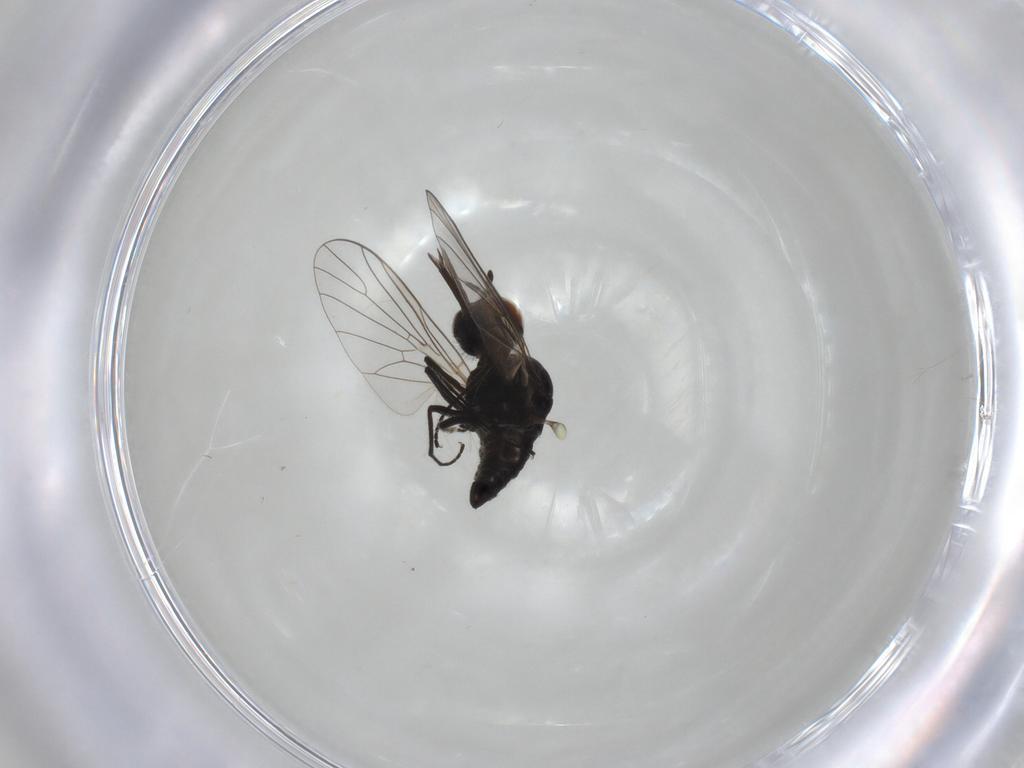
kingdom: Animalia
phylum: Arthropoda
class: Insecta
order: Diptera
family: Bombyliidae
